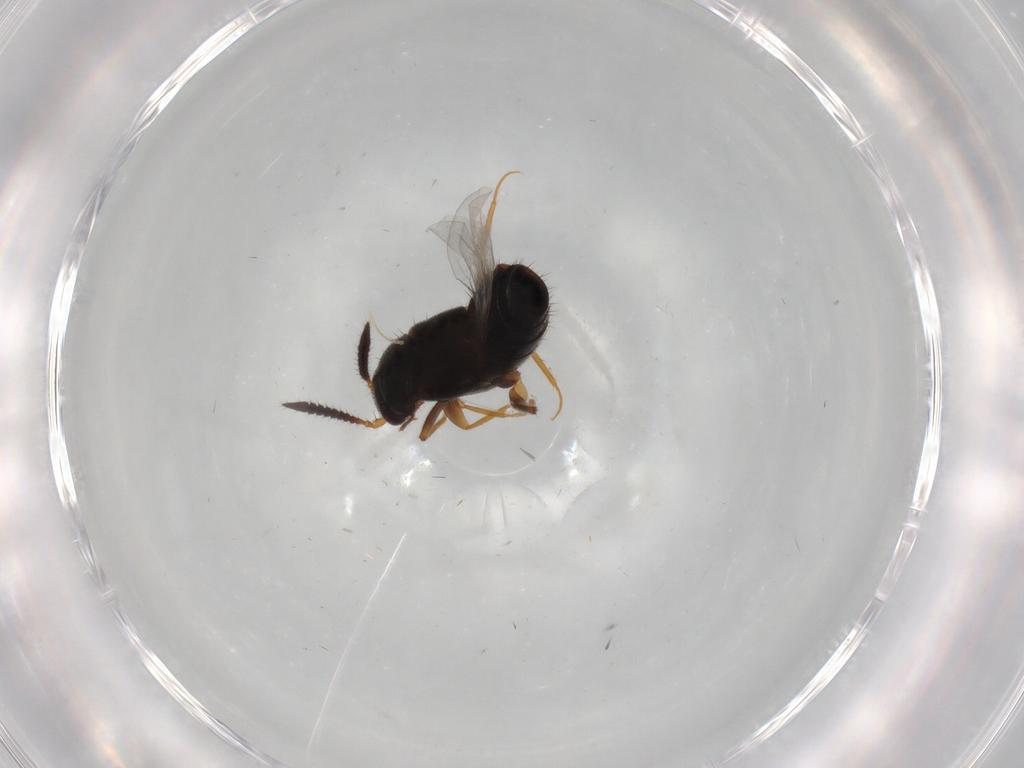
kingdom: Animalia
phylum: Arthropoda
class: Insecta
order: Coleoptera
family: Staphylinidae
